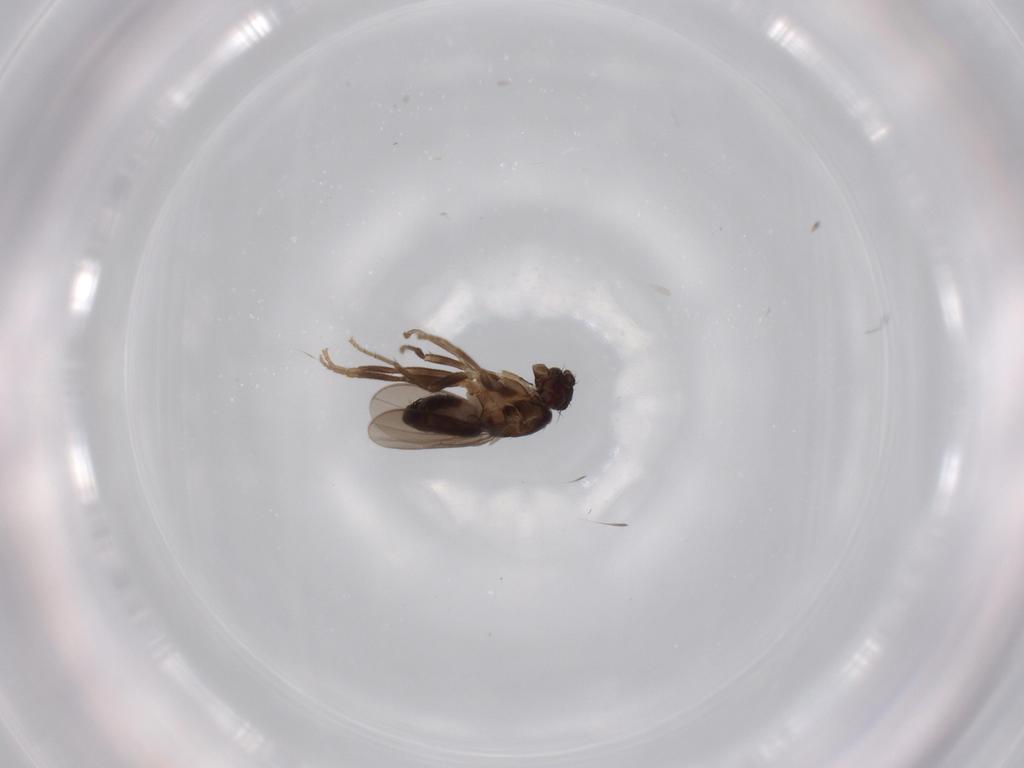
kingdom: Animalia
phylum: Arthropoda
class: Insecta
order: Diptera
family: Sphaeroceridae
